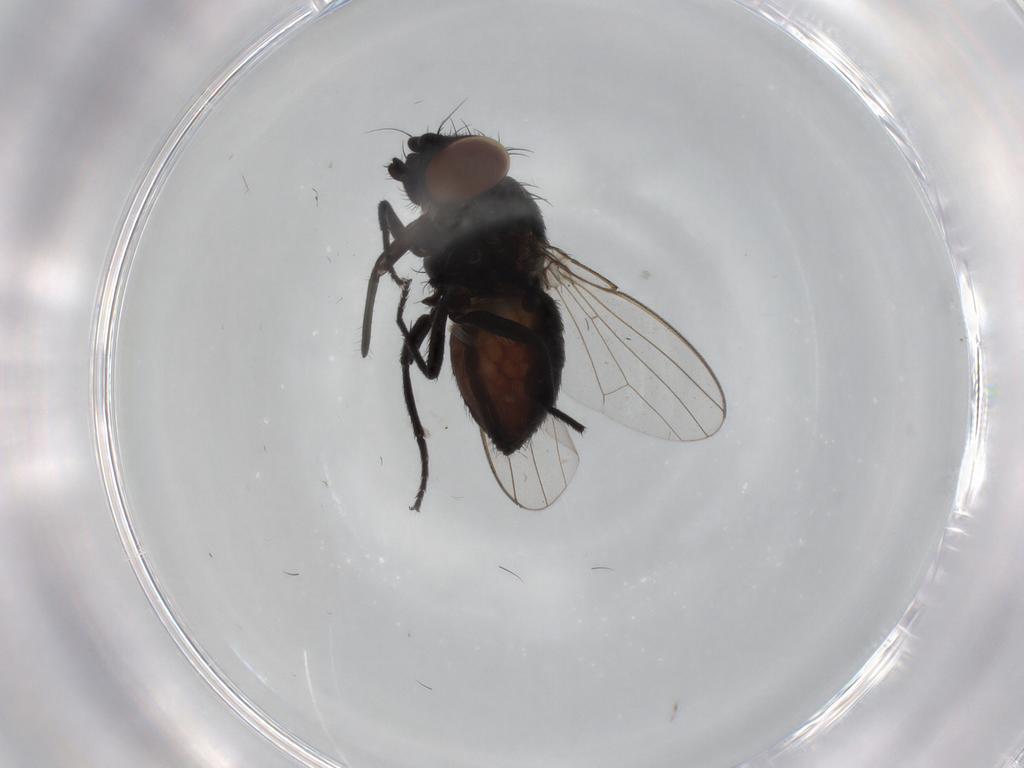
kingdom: Animalia
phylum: Arthropoda
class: Insecta
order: Diptera
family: Milichiidae
